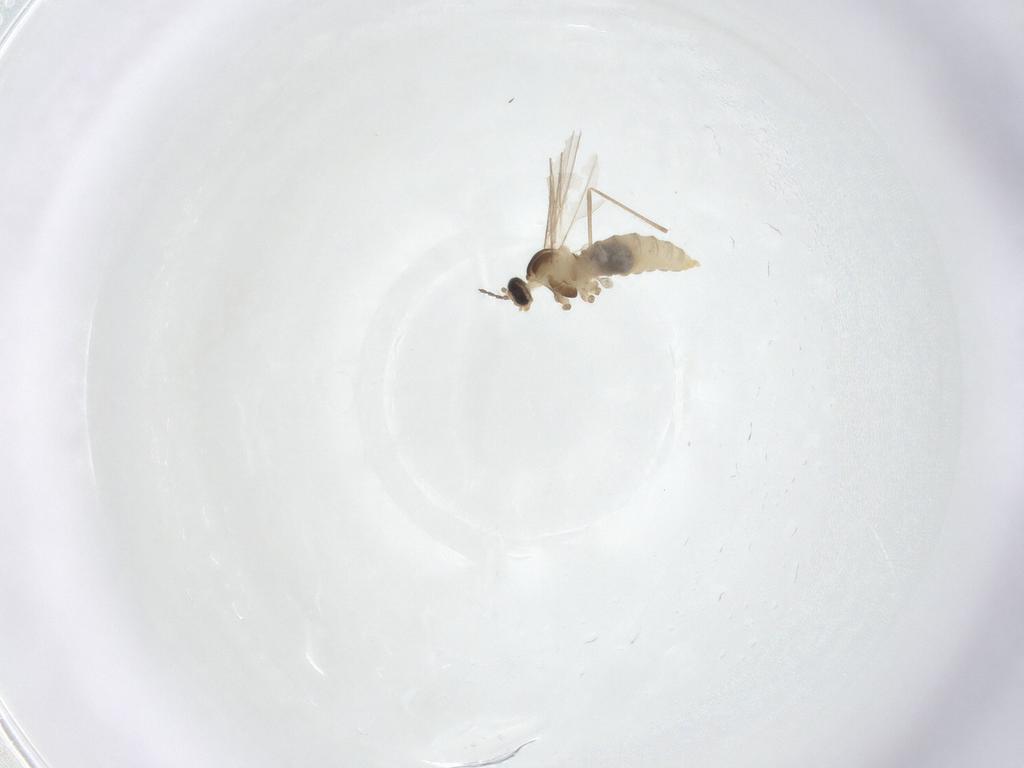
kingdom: Animalia
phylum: Arthropoda
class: Insecta
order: Diptera
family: Cecidomyiidae
